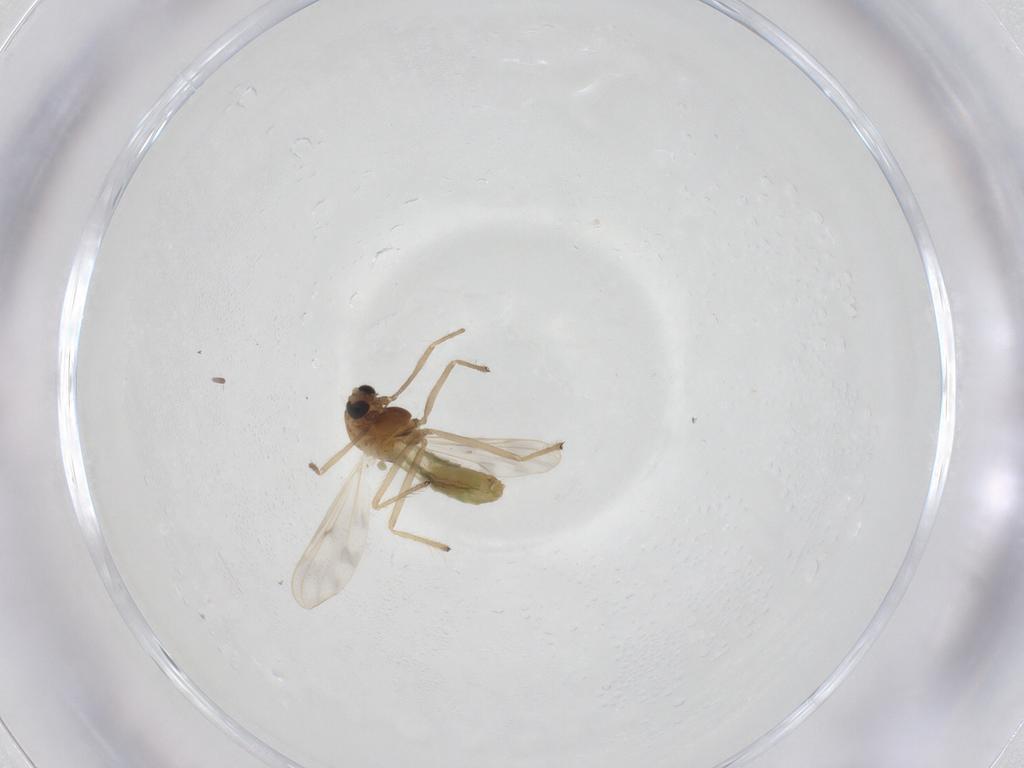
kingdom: Animalia
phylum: Arthropoda
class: Insecta
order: Diptera
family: Chironomidae
